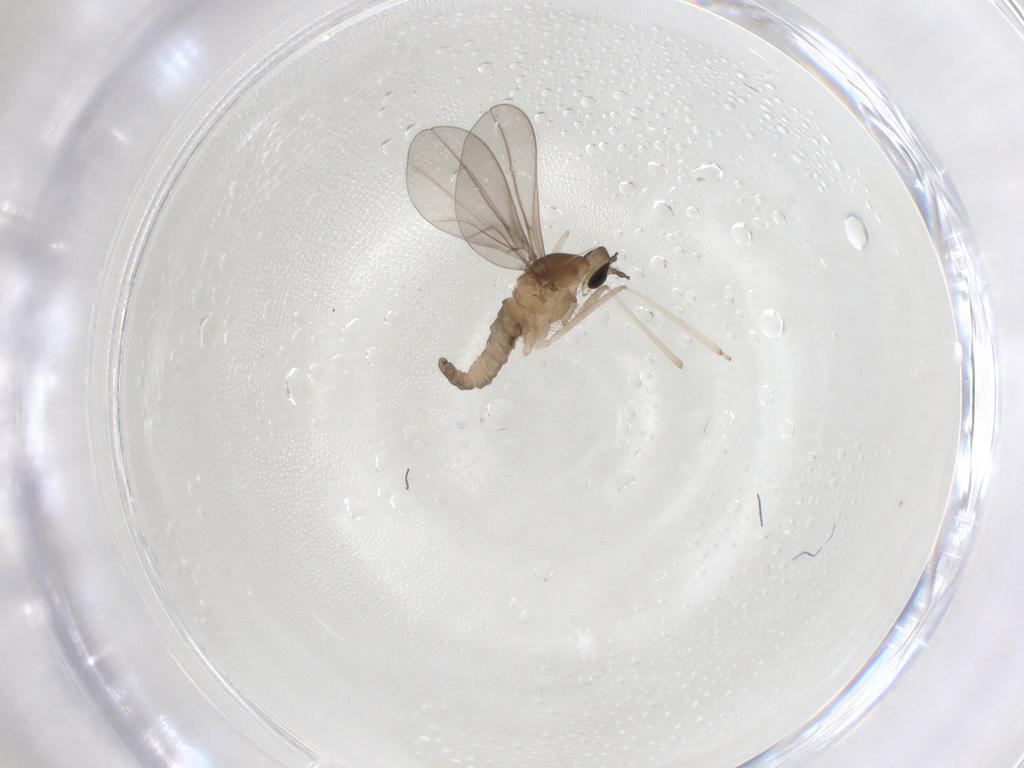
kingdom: Animalia
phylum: Arthropoda
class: Insecta
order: Diptera
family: Cecidomyiidae
